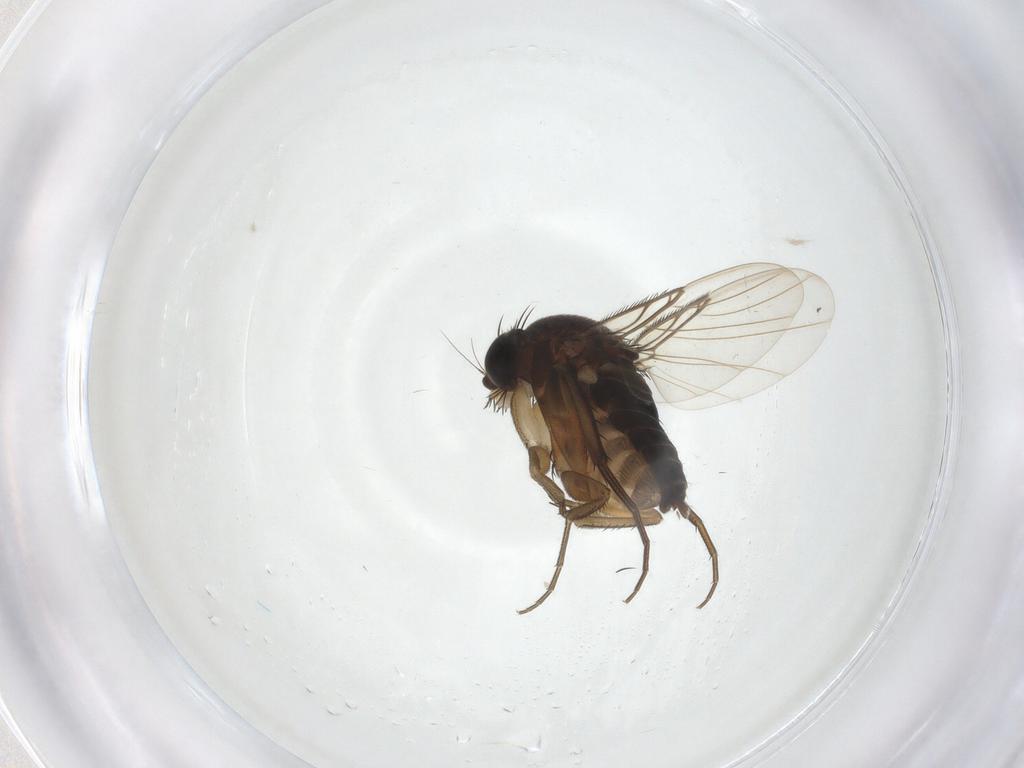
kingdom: Animalia
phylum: Arthropoda
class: Insecta
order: Diptera
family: Phoridae
